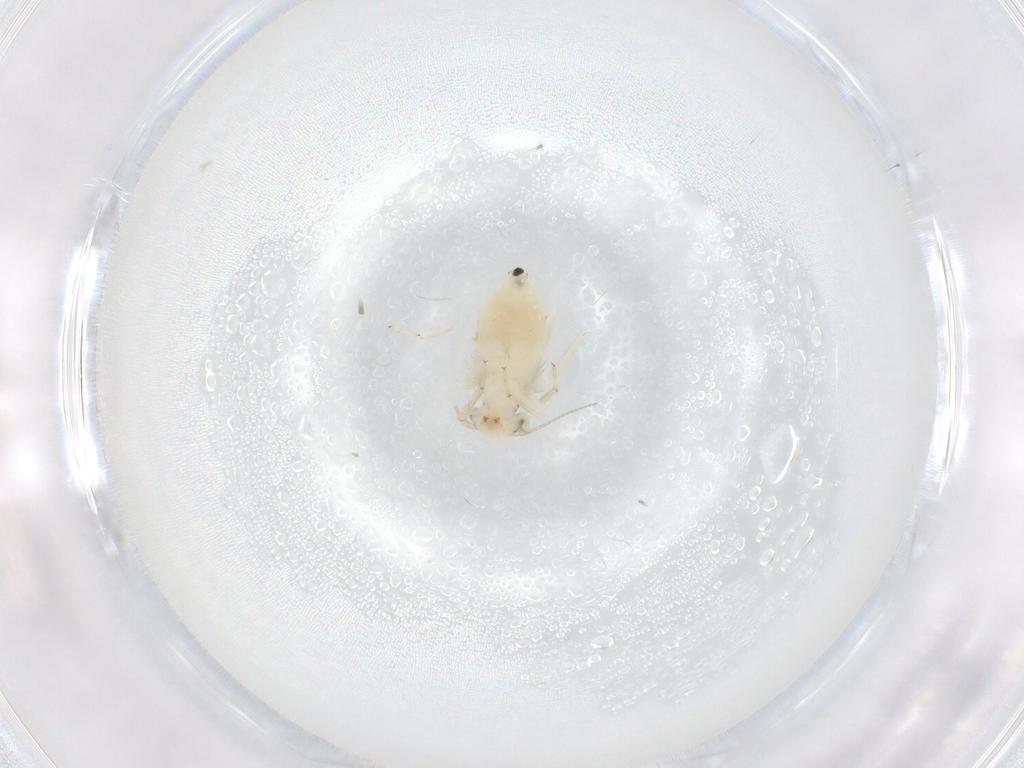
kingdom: Animalia
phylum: Arthropoda
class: Insecta
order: Psocodea
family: Lepidopsocidae
